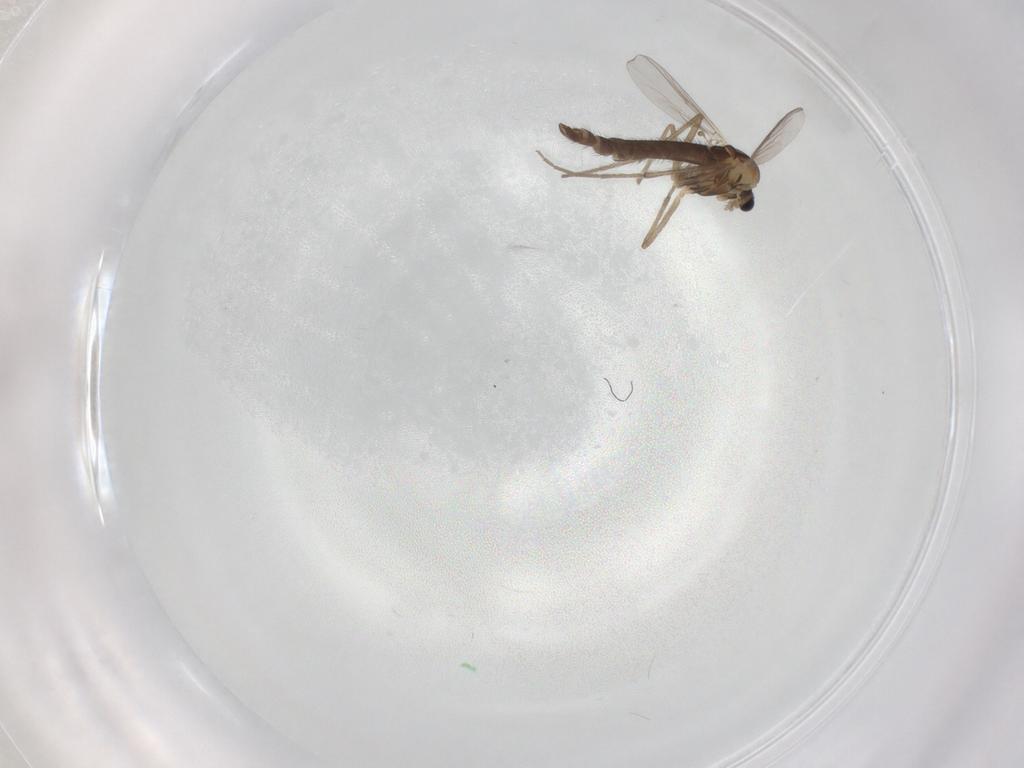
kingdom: Animalia
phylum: Arthropoda
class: Insecta
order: Diptera
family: Chironomidae
